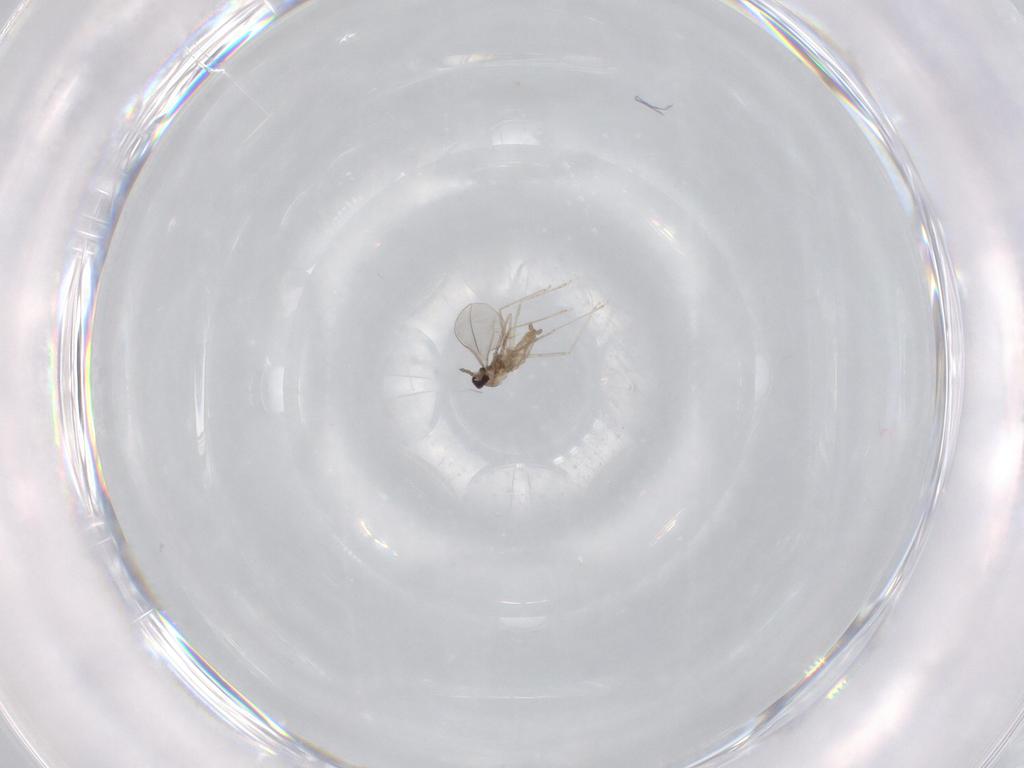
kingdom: Animalia
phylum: Arthropoda
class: Insecta
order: Diptera
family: Cecidomyiidae
